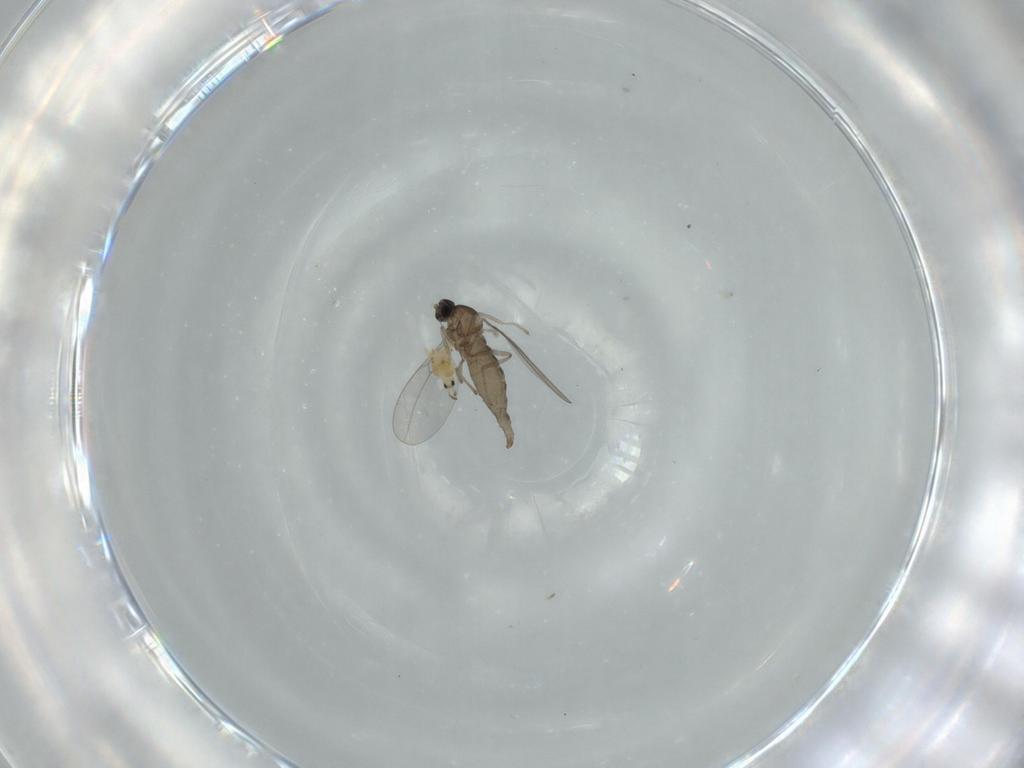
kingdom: Animalia
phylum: Arthropoda
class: Insecta
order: Diptera
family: Cecidomyiidae
